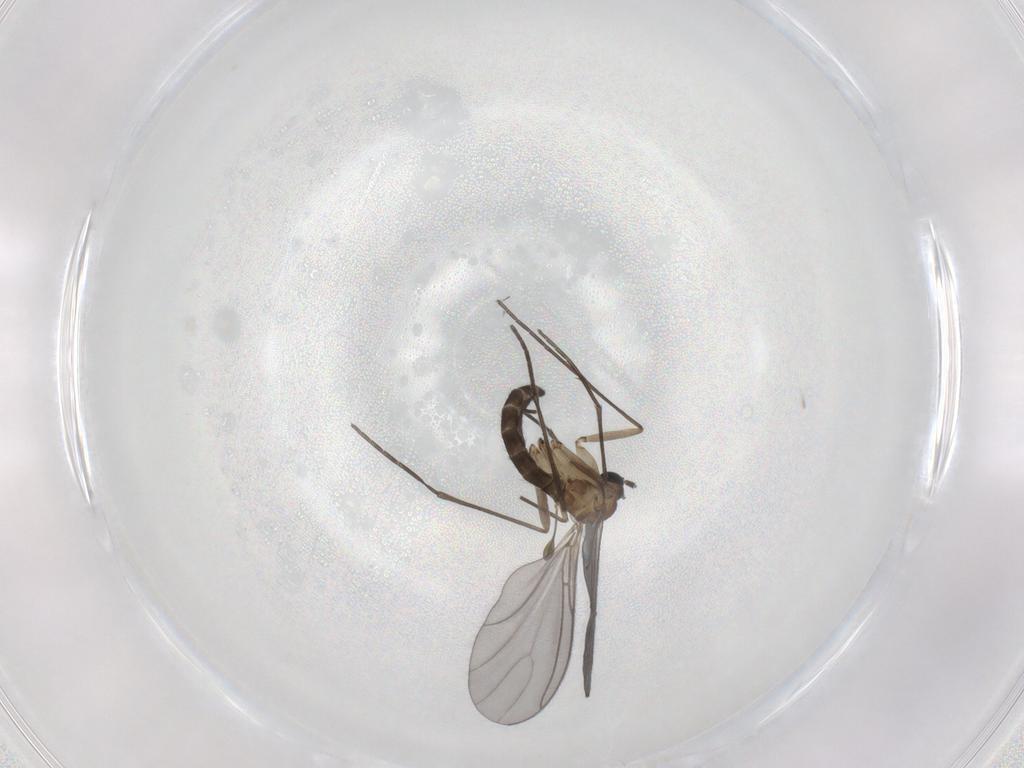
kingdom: Animalia
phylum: Arthropoda
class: Insecta
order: Diptera
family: Sciaridae
